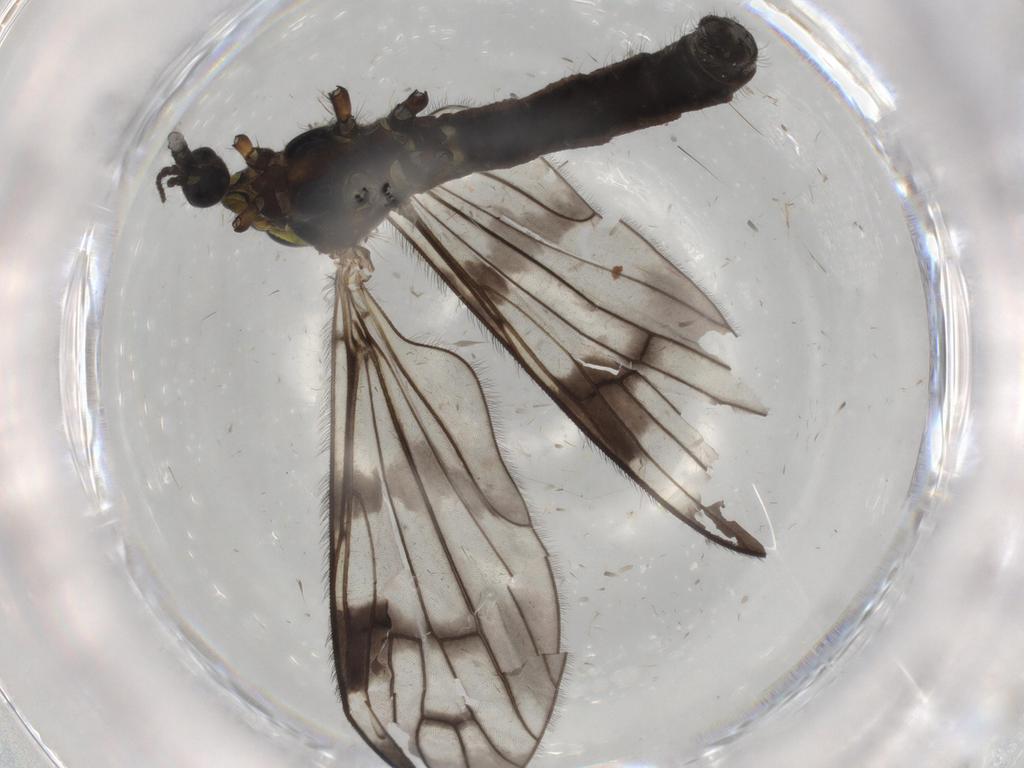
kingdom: Animalia
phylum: Arthropoda
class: Insecta
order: Diptera
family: Limoniidae
